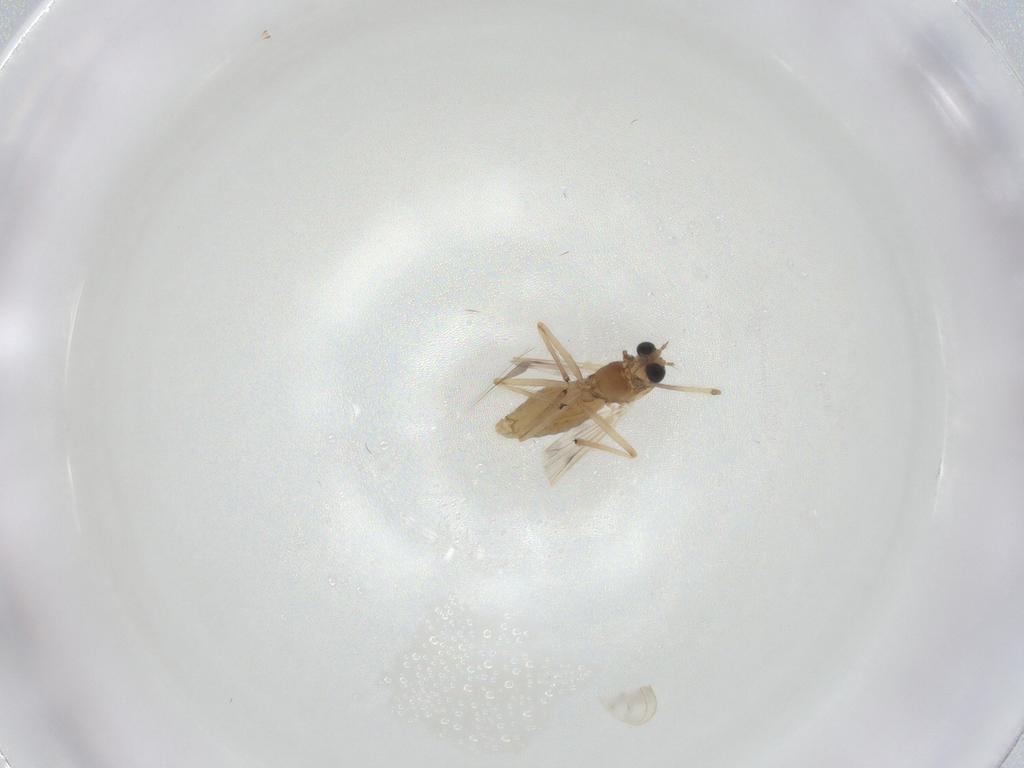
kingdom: Animalia
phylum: Arthropoda
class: Insecta
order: Diptera
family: Chironomidae
